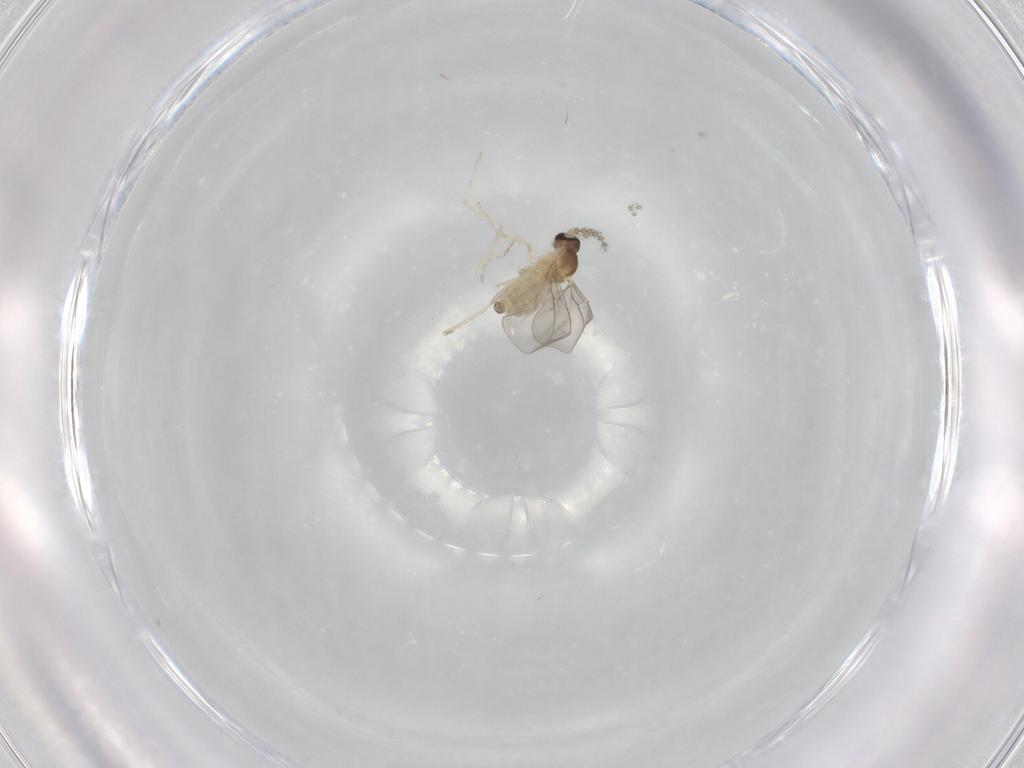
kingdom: Animalia
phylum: Arthropoda
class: Insecta
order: Diptera
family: Cecidomyiidae
